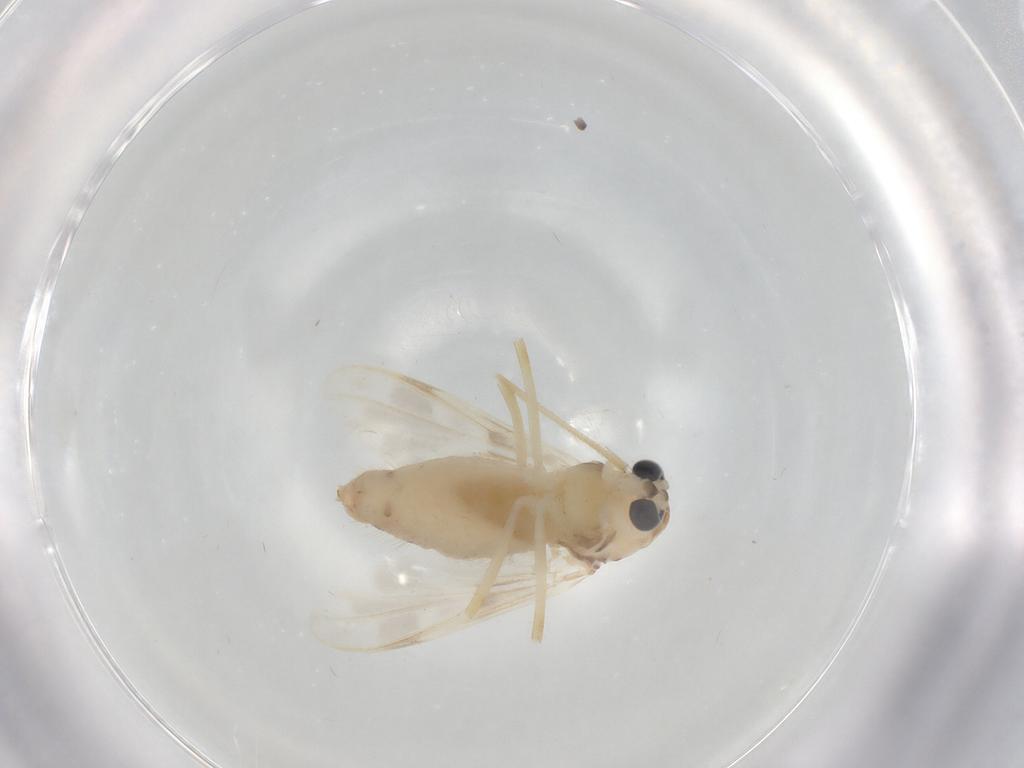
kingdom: Animalia
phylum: Arthropoda
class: Insecta
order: Diptera
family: Chironomidae
